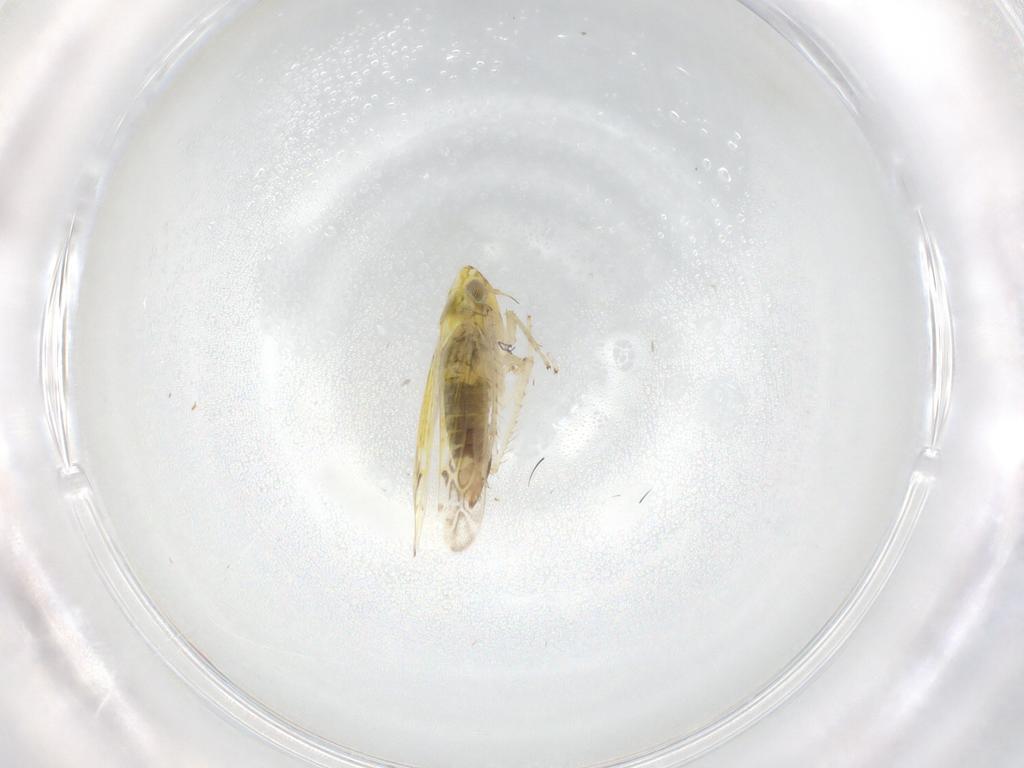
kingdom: Animalia
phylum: Arthropoda
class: Insecta
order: Hemiptera
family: Cicadellidae
